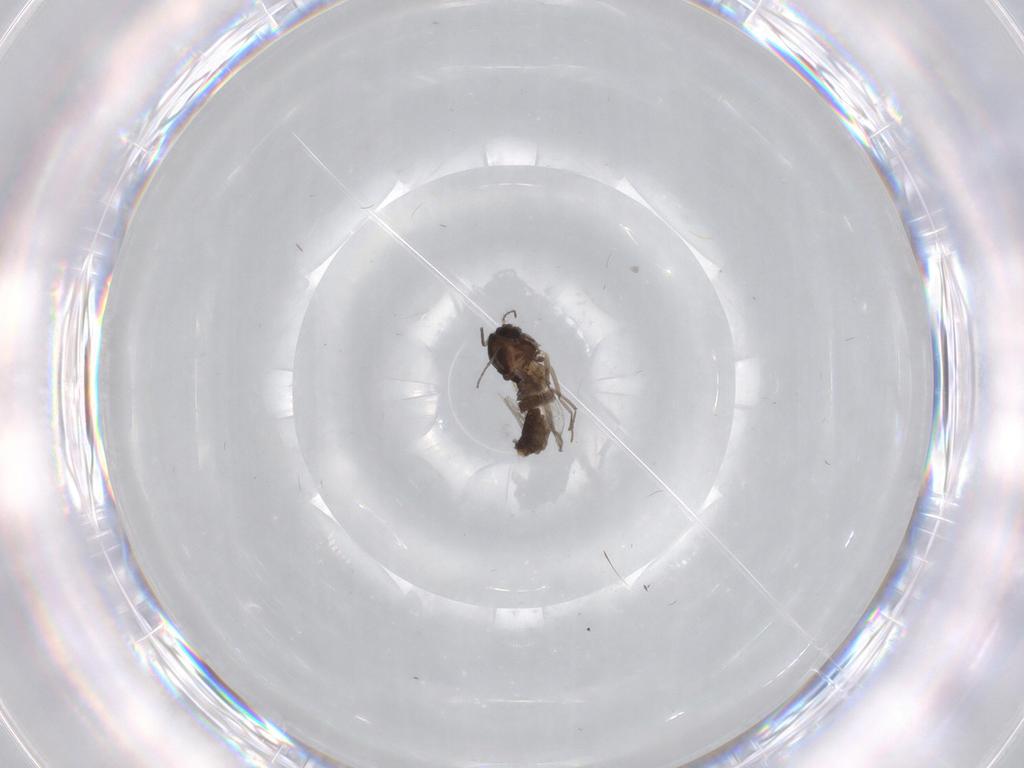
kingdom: Animalia
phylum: Arthropoda
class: Insecta
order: Diptera
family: Chironomidae
